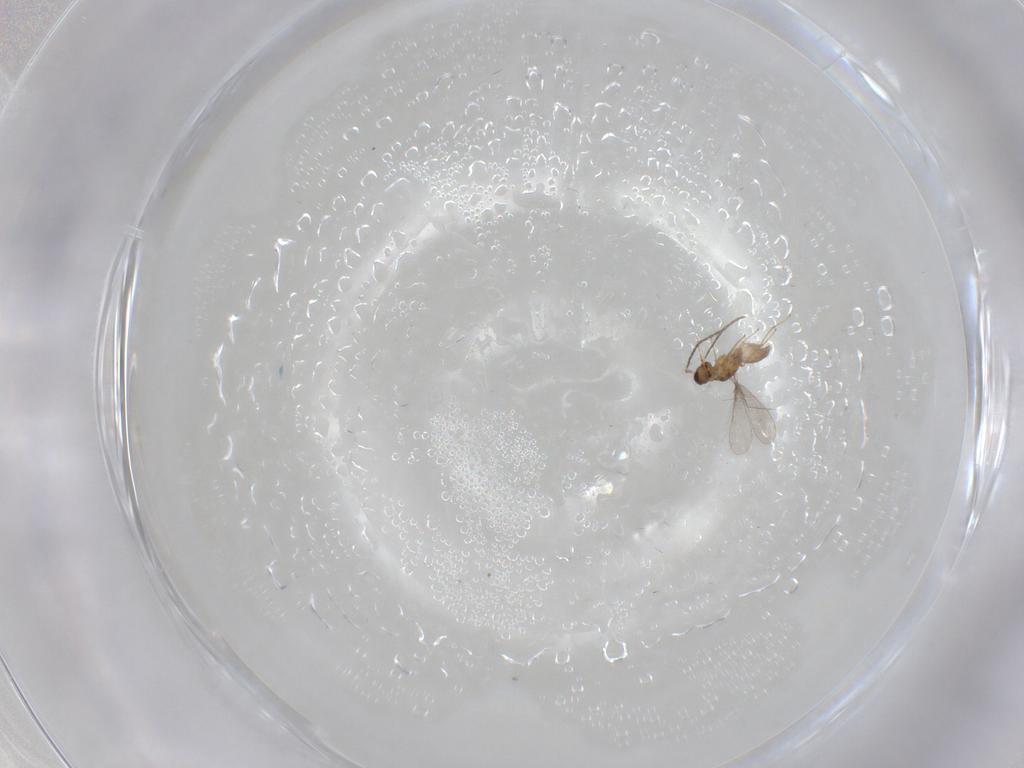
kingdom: Animalia
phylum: Arthropoda
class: Insecta
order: Hymenoptera
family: Mymaridae
